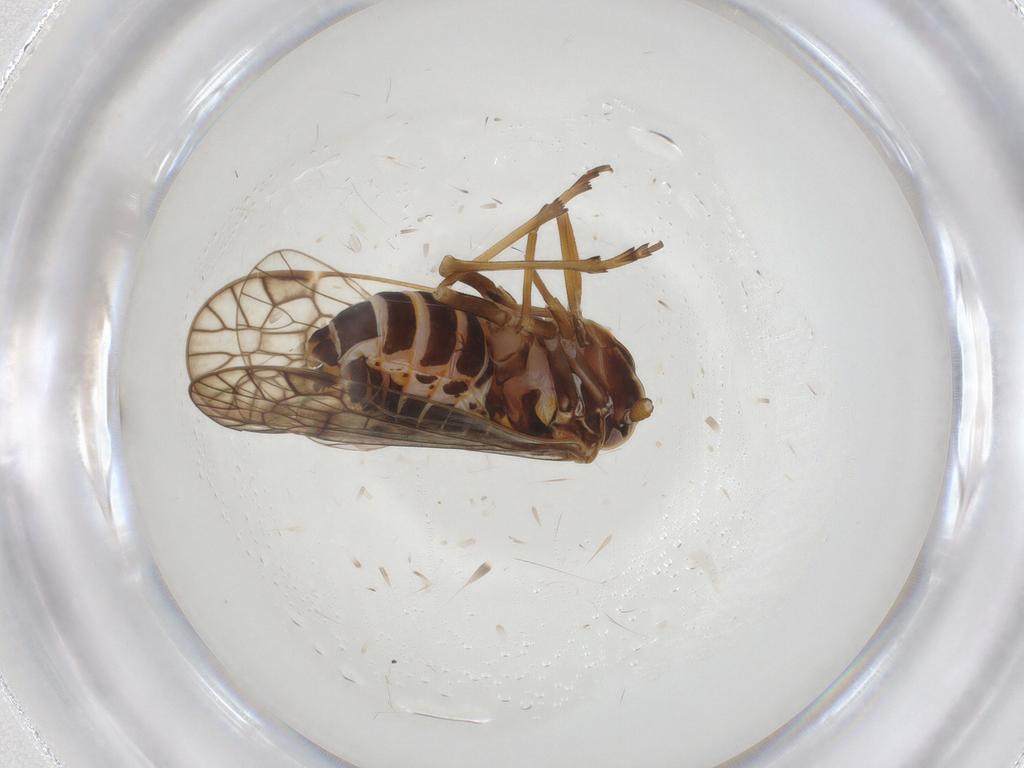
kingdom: Animalia
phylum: Arthropoda
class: Insecta
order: Hemiptera
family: Kinnaridae
